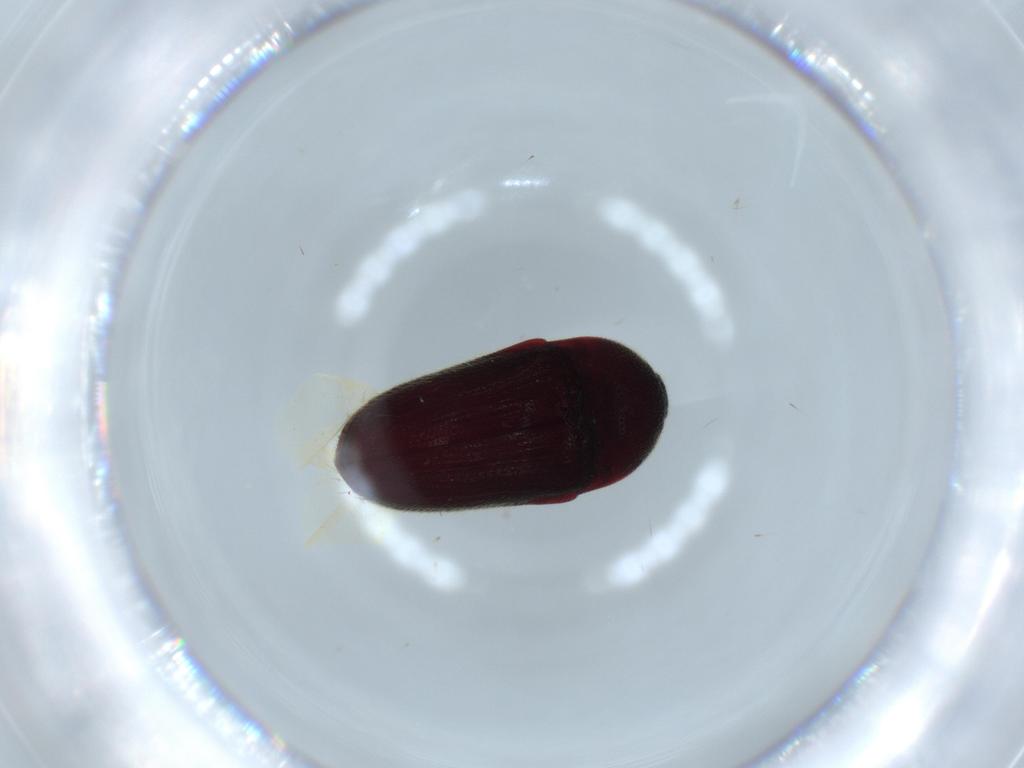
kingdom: Animalia
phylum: Arthropoda
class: Insecta
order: Coleoptera
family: Throscidae
